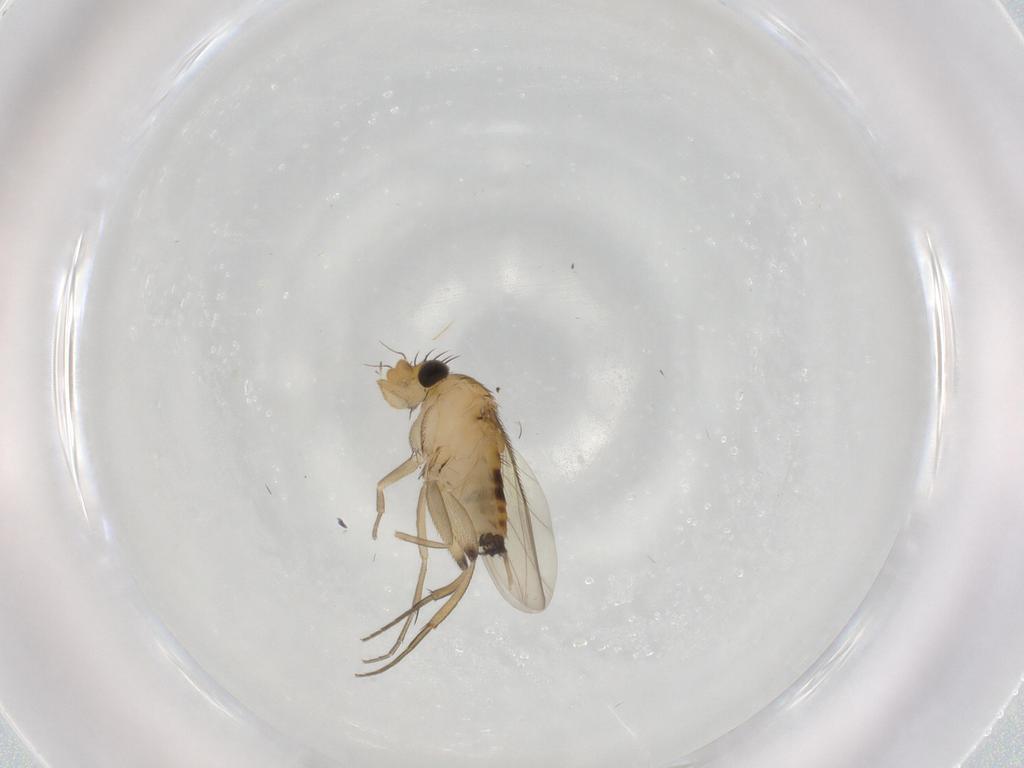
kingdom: Animalia
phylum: Arthropoda
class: Insecta
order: Diptera
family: Phoridae
